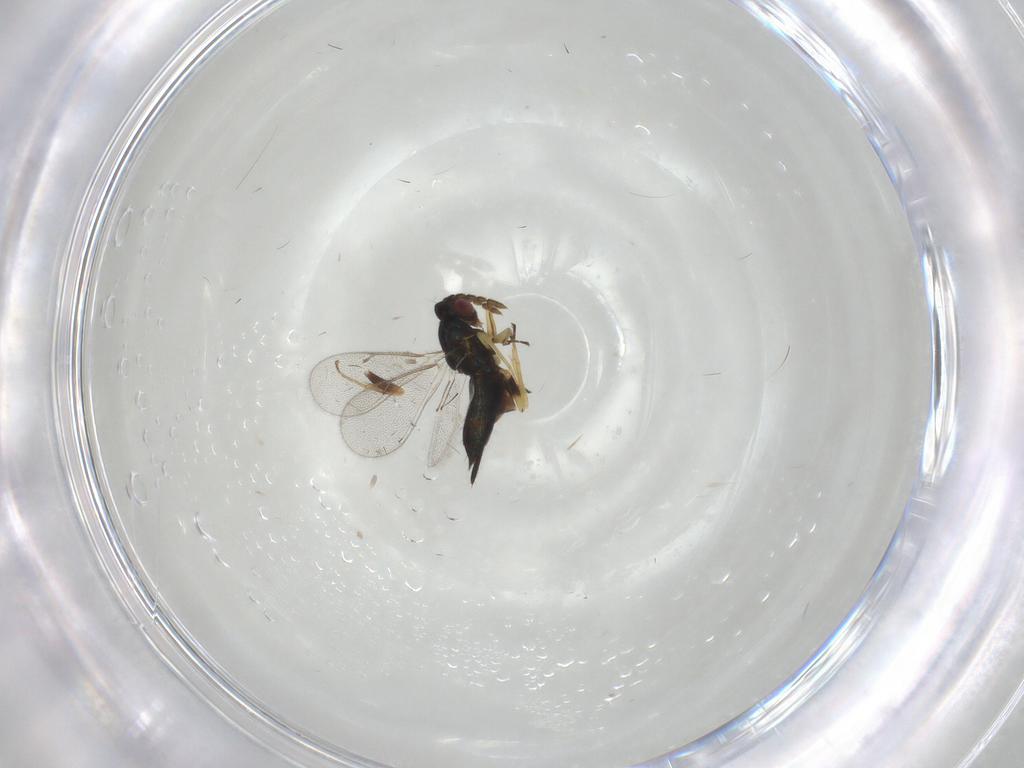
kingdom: Animalia
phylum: Arthropoda
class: Insecta
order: Hymenoptera
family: Eulophidae
